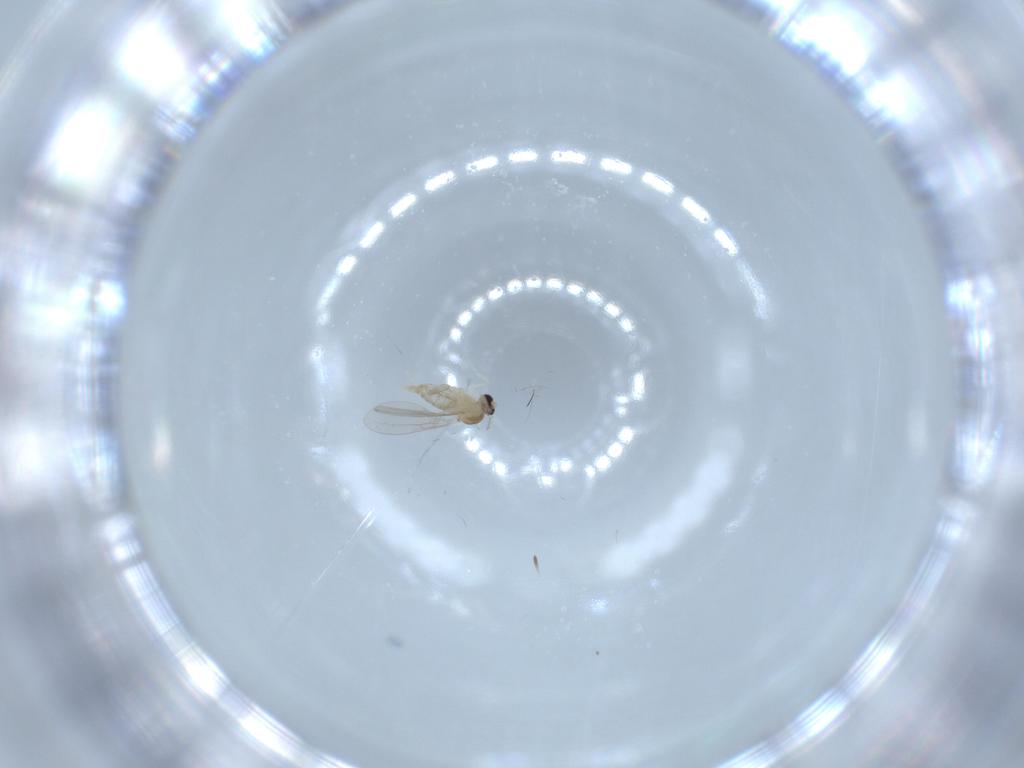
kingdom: Animalia
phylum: Arthropoda
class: Insecta
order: Diptera
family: Cecidomyiidae
